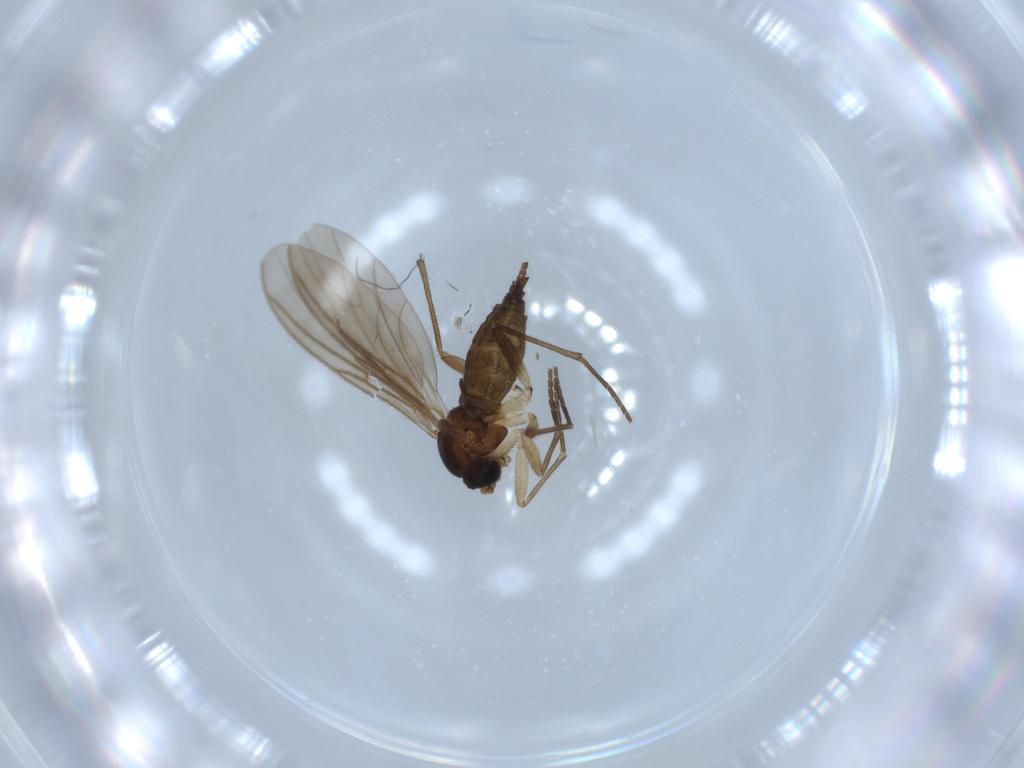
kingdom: Animalia
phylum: Arthropoda
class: Insecta
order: Diptera
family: Sciaridae
